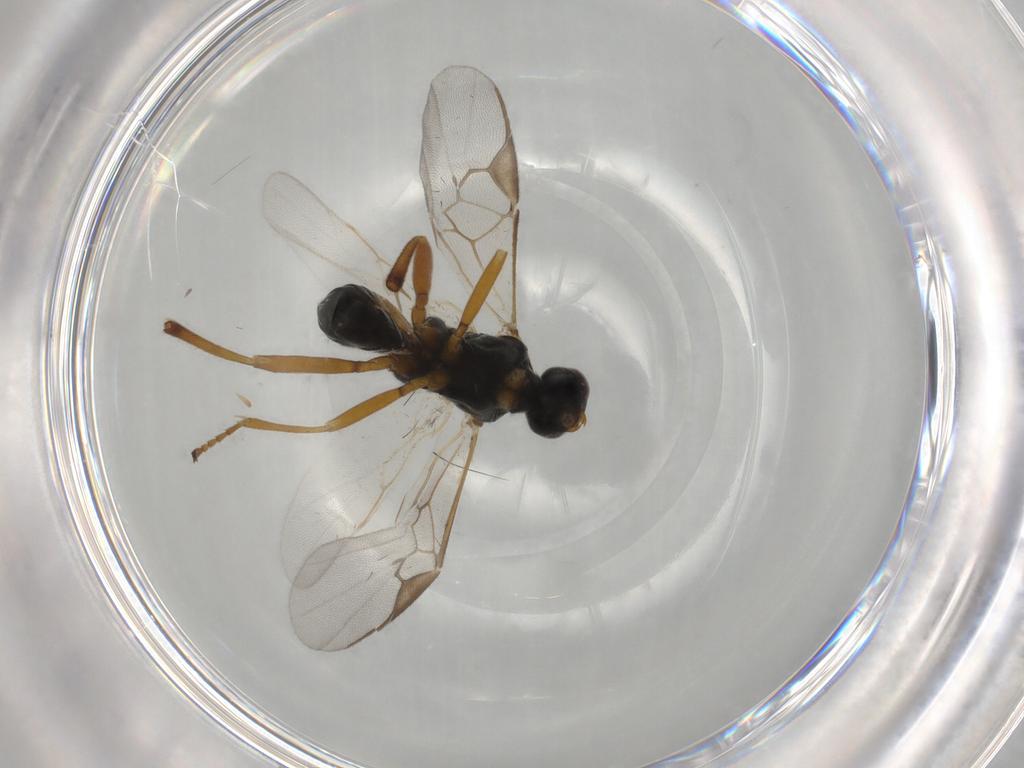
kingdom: Animalia
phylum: Arthropoda
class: Insecta
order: Hymenoptera
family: Braconidae
